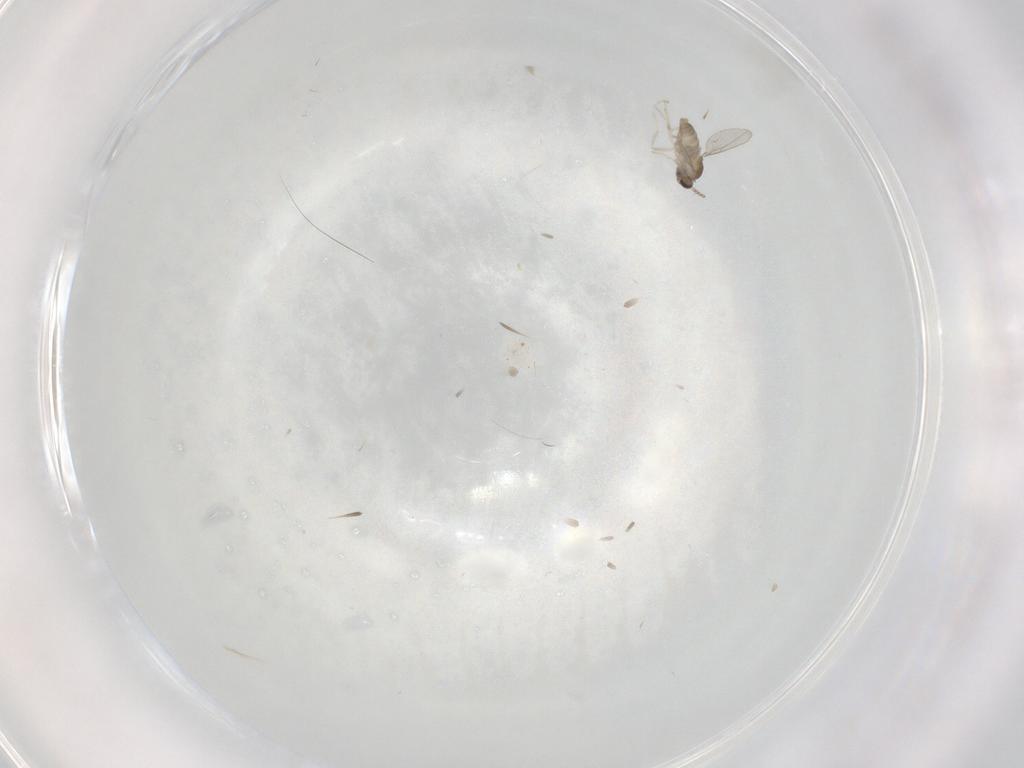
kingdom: Animalia
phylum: Arthropoda
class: Insecta
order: Diptera
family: Cecidomyiidae
